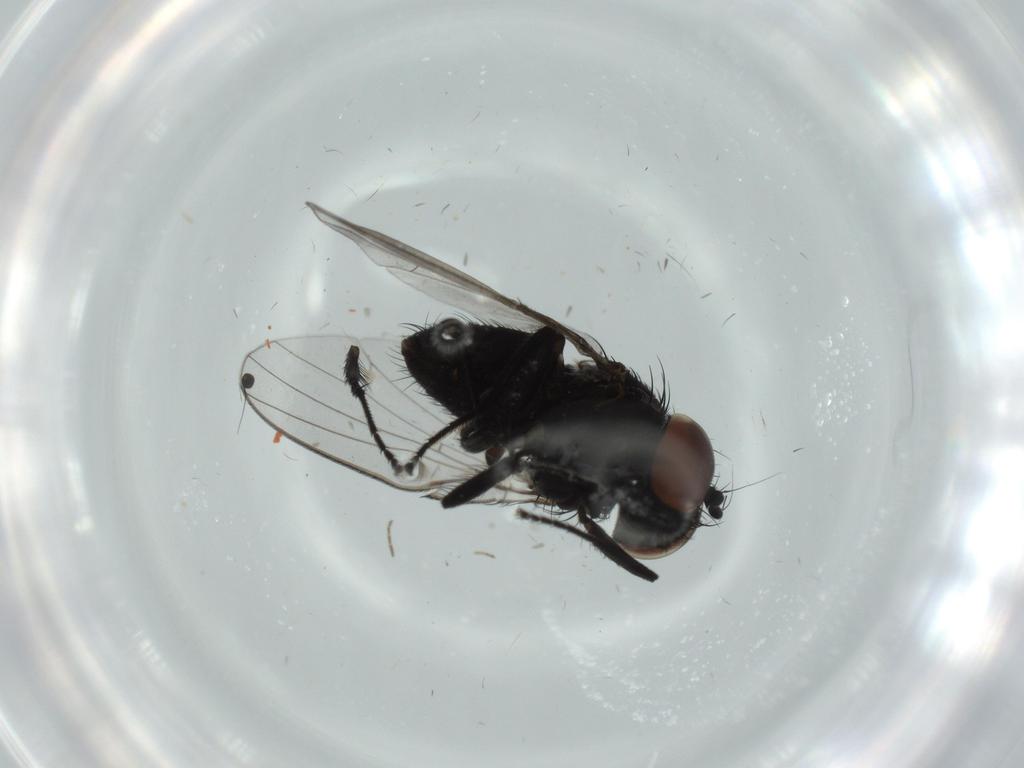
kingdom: Animalia
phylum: Arthropoda
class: Insecta
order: Diptera
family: Milichiidae
